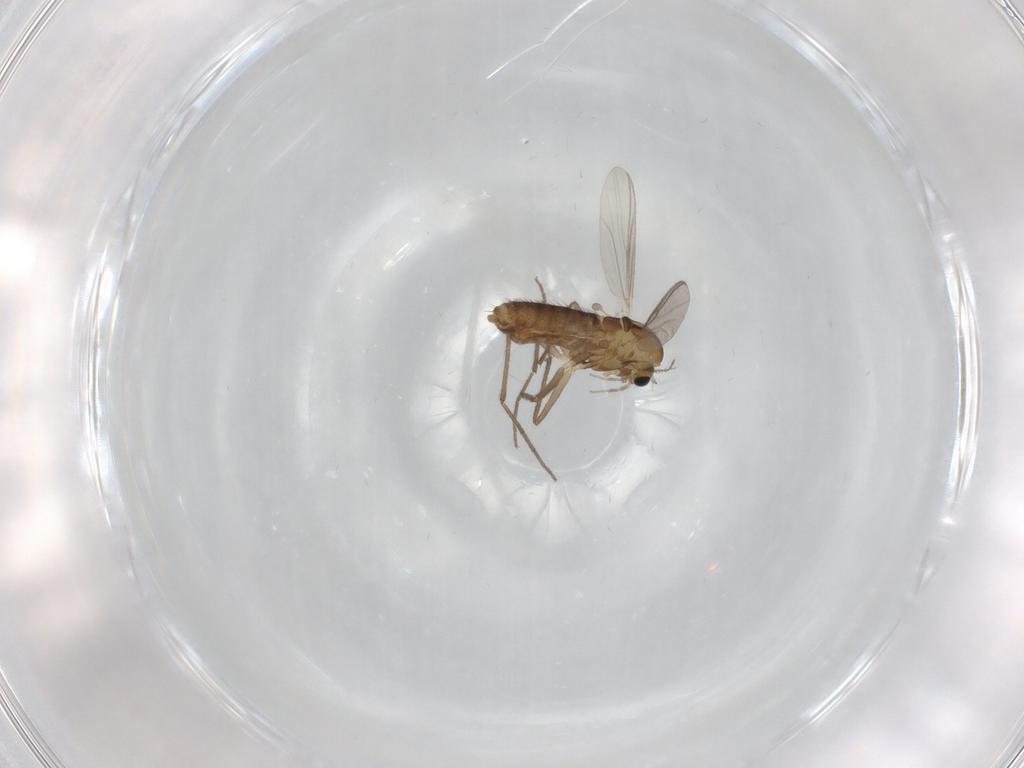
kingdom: Animalia
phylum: Arthropoda
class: Insecta
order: Diptera
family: Chironomidae
